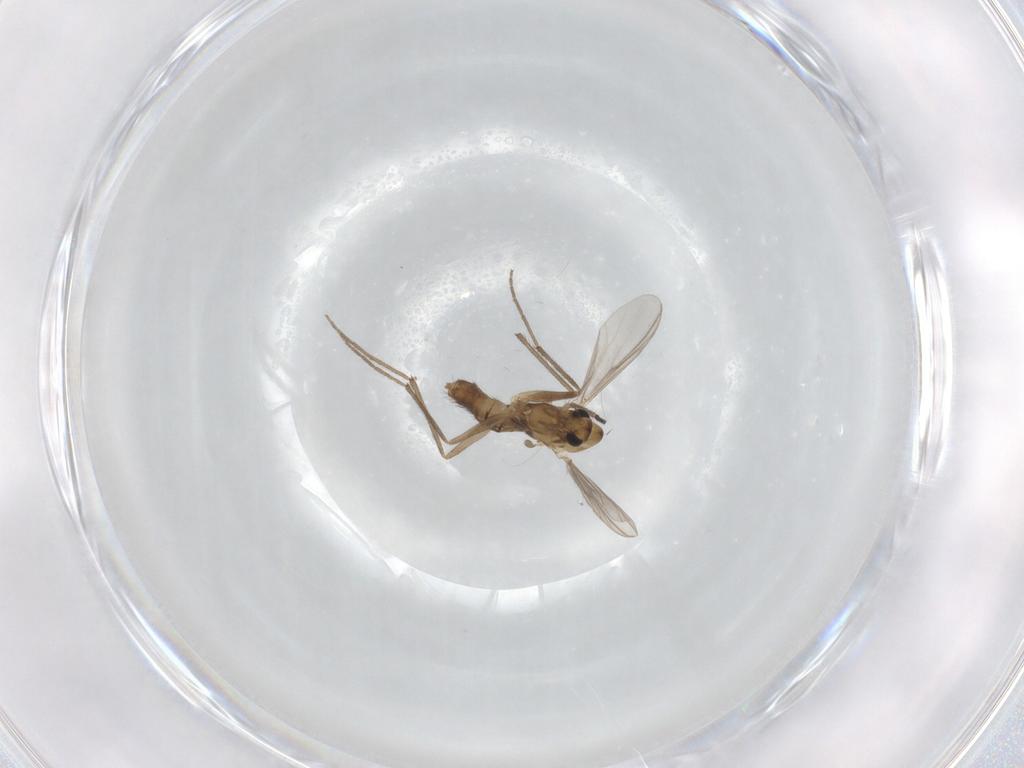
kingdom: Animalia
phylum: Arthropoda
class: Insecta
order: Diptera
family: Chironomidae
